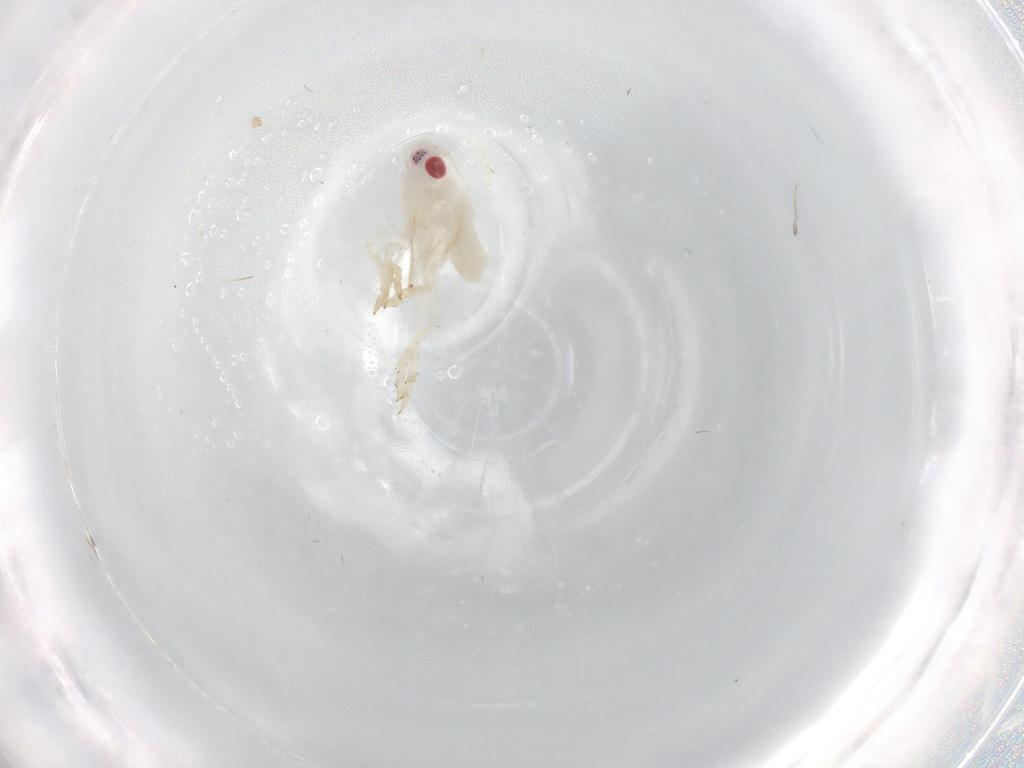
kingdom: Animalia
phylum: Arthropoda
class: Insecta
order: Hemiptera
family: Tropiduchidae
